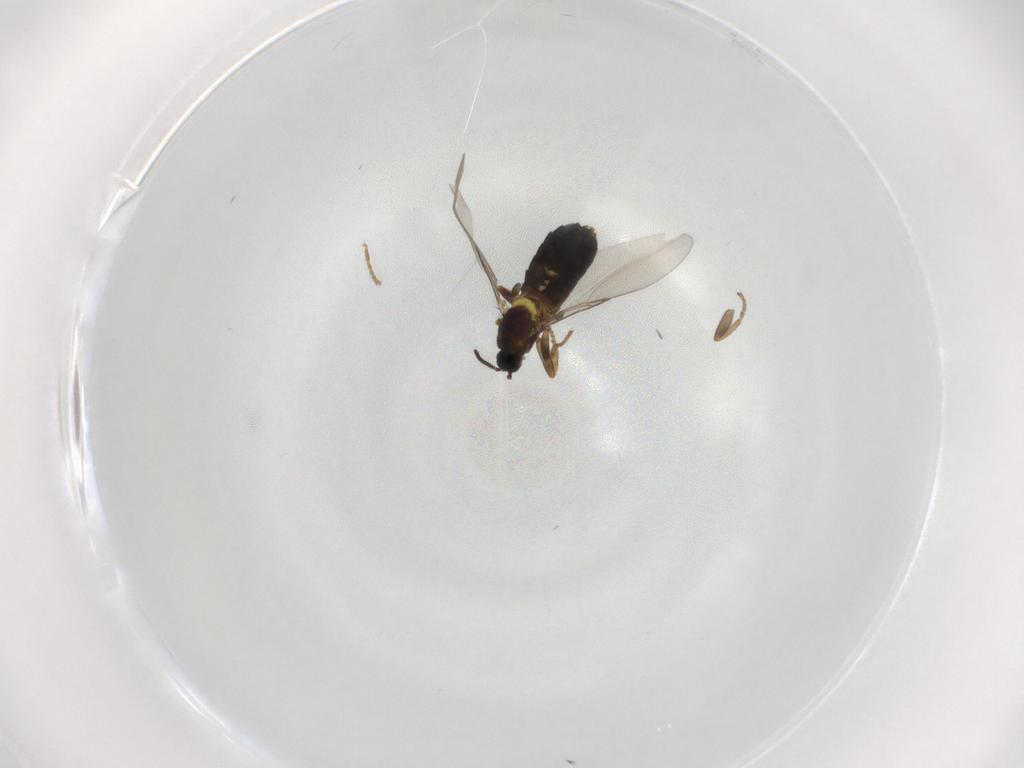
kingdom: Animalia
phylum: Arthropoda
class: Insecta
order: Diptera
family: Scatopsidae
